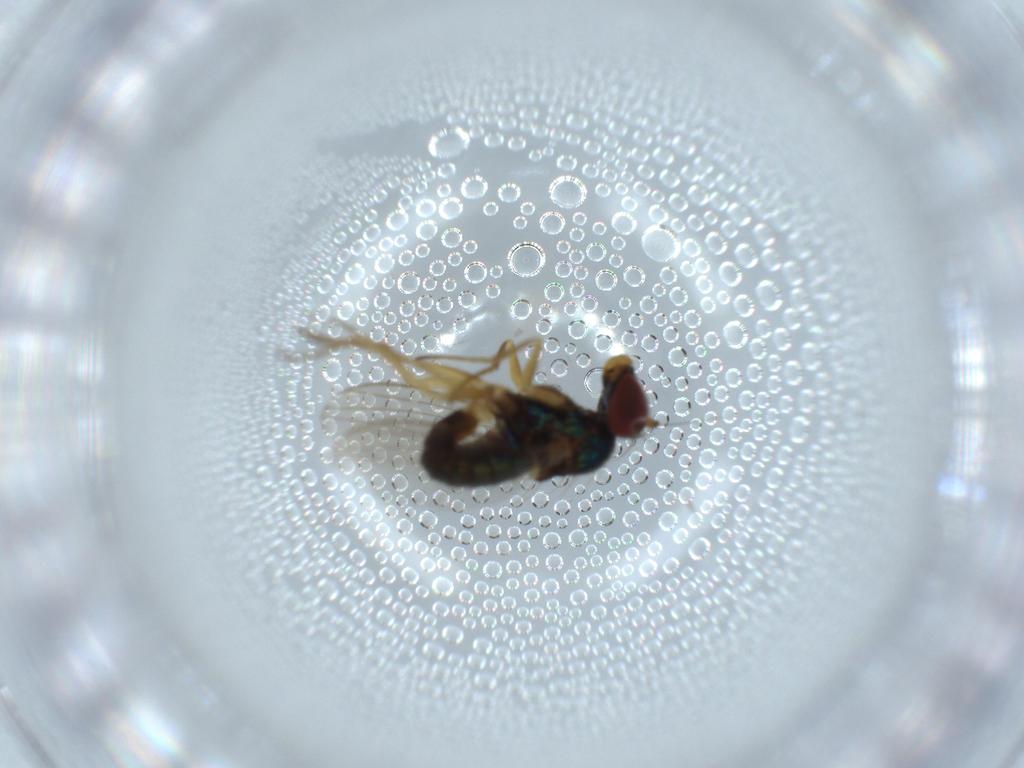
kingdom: Animalia
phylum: Arthropoda
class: Insecta
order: Diptera
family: Dolichopodidae
